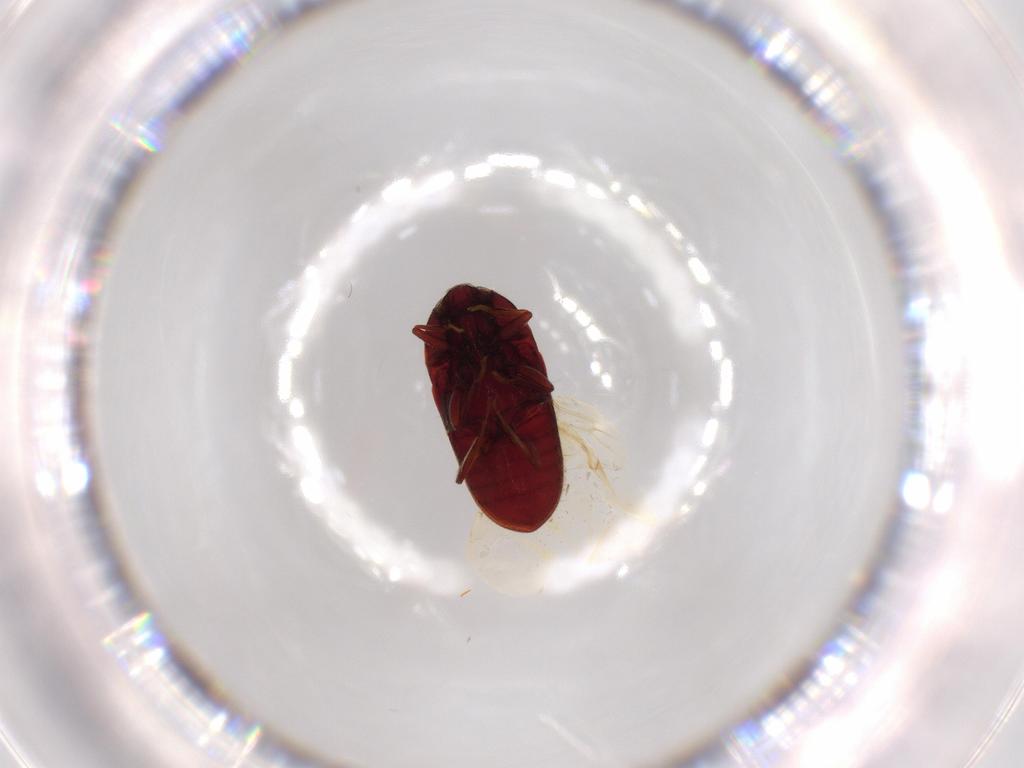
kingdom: Animalia
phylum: Arthropoda
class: Insecta
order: Coleoptera
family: Throscidae
